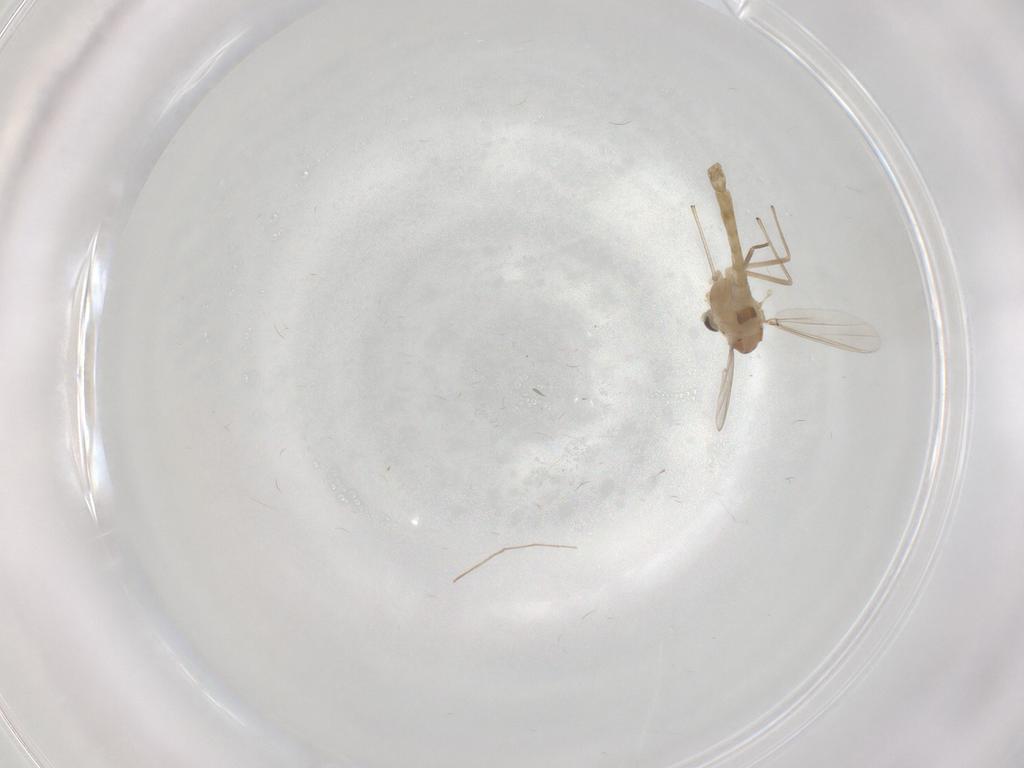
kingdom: Animalia
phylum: Arthropoda
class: Insecta
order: Diptera
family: Chironomidae
